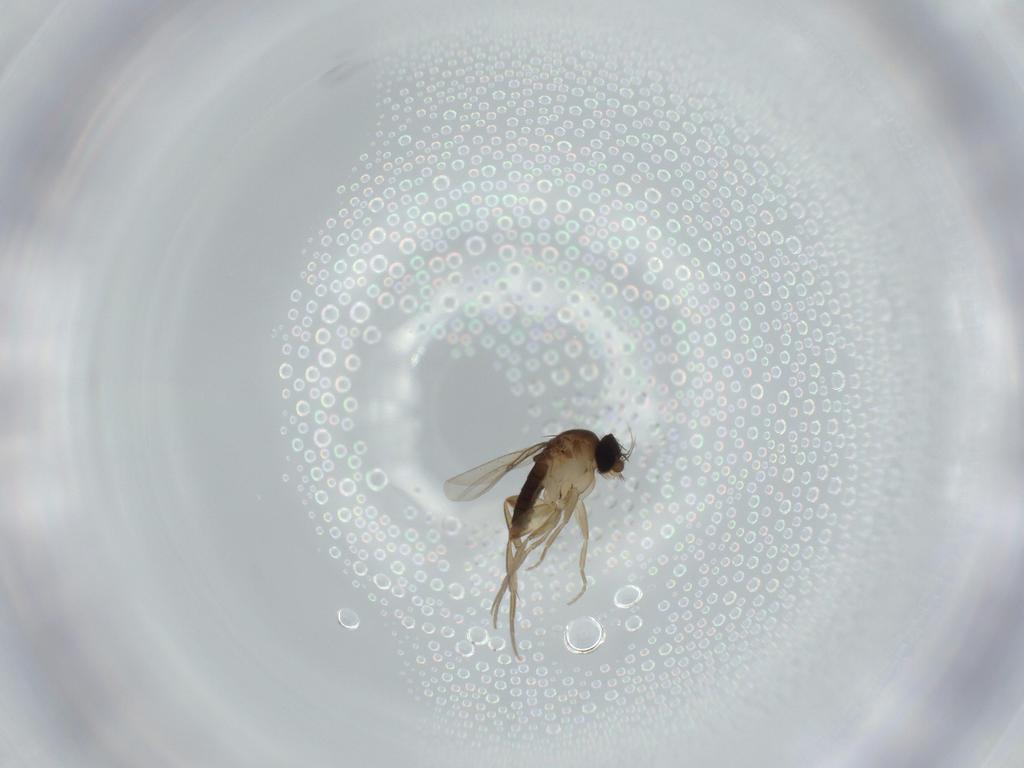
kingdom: Animalia
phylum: Arthropoda
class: Insecta
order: Diptera
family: Phoridae
